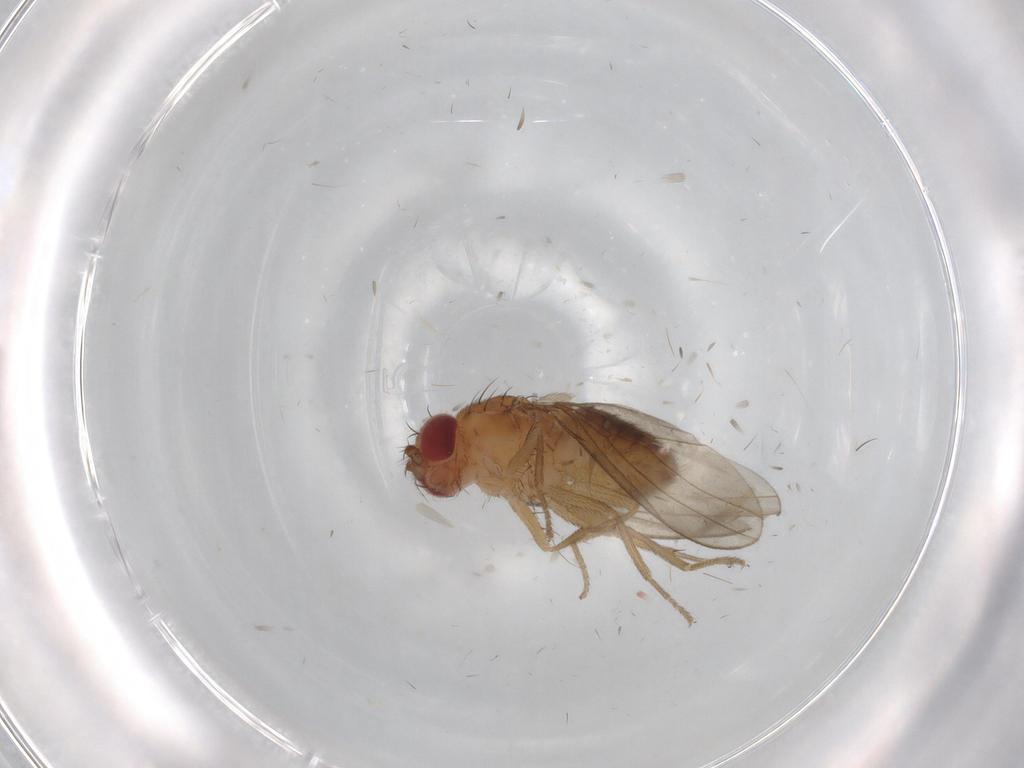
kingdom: Animalia
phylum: Arthropoda
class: Insecta
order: Diptera
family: Drosophilidae
